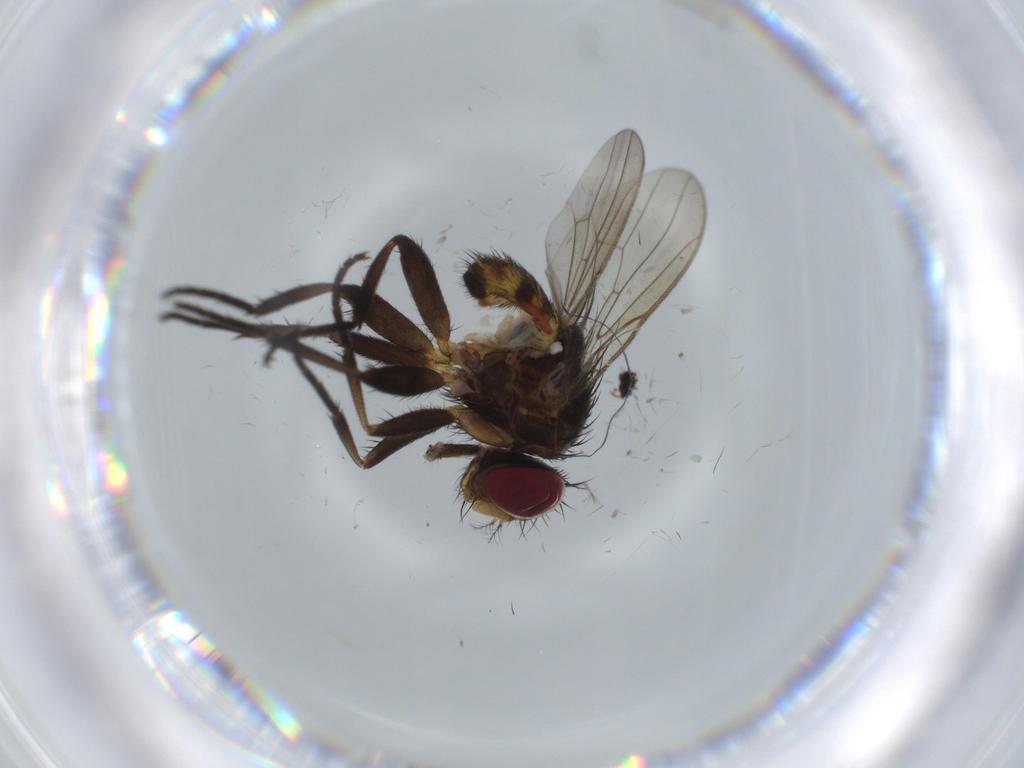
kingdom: Animalia
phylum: Arthropoda
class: Insecta
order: Diptera
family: Anthomyiidae
